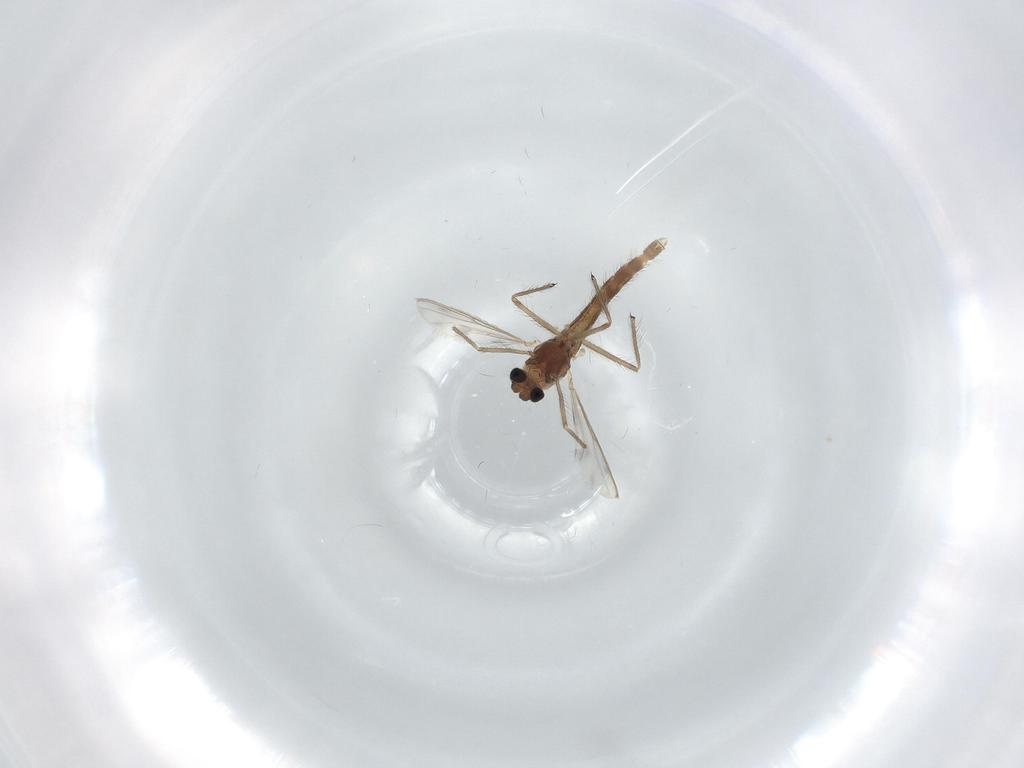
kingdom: Animalia
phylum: Arthropoda
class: Insecta
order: Diptera
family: Chironomidae
